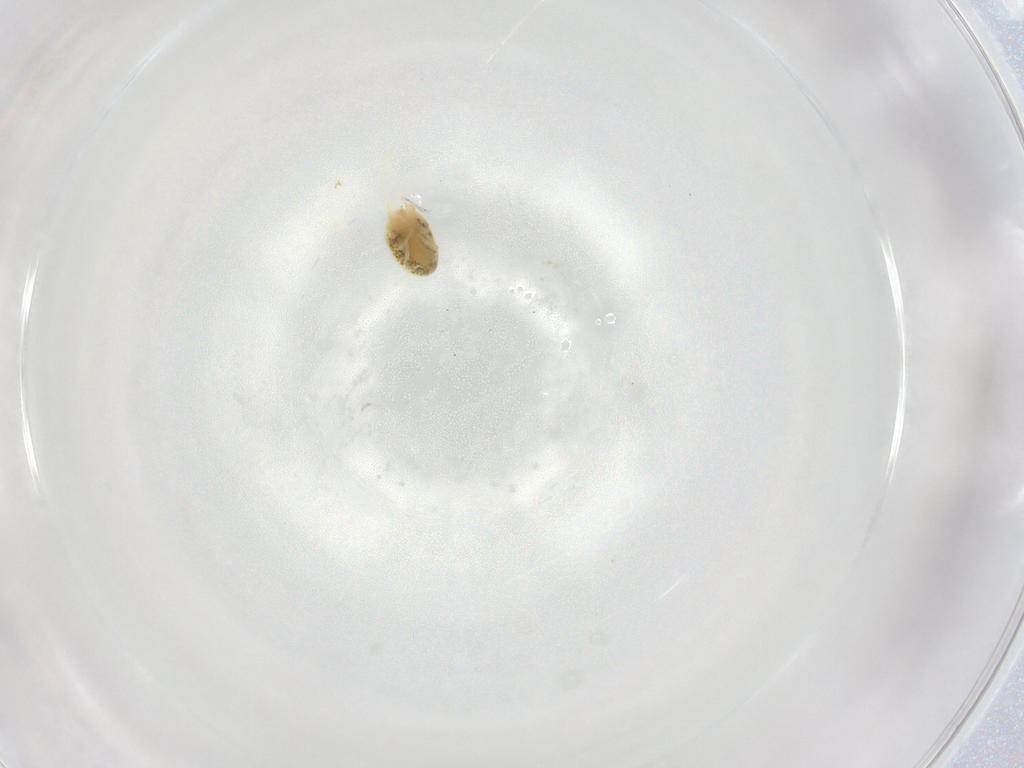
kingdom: Animalia
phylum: Arthropoda
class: Arachnida
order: Trombidiformes
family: Tetranychidae
